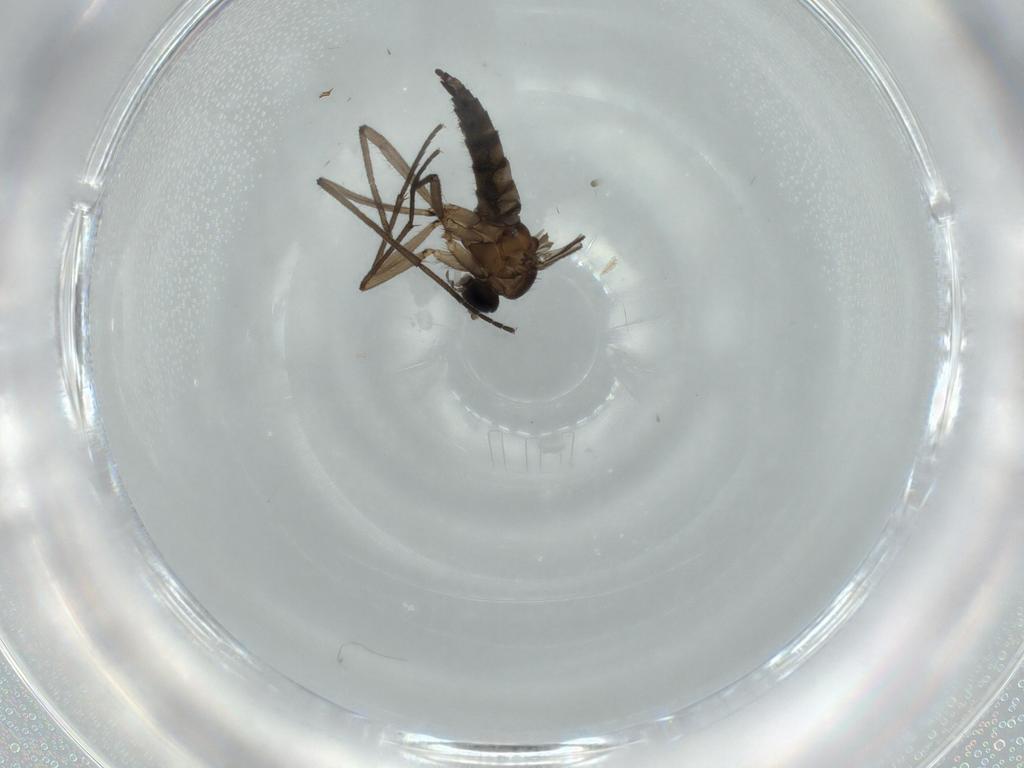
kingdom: Animalia
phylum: Arthropoda
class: Insecta
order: Diptera
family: Sciaridae
